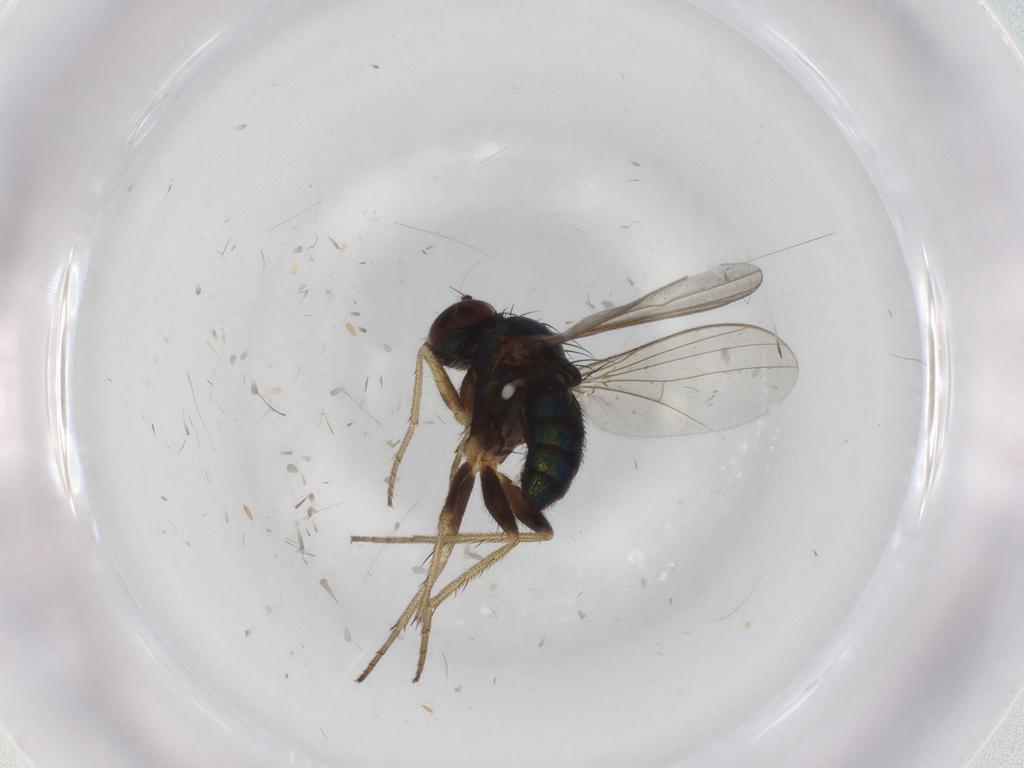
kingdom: Animalia
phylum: Arthropoda
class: Insecta
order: Diptera
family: Dolichopodidae
